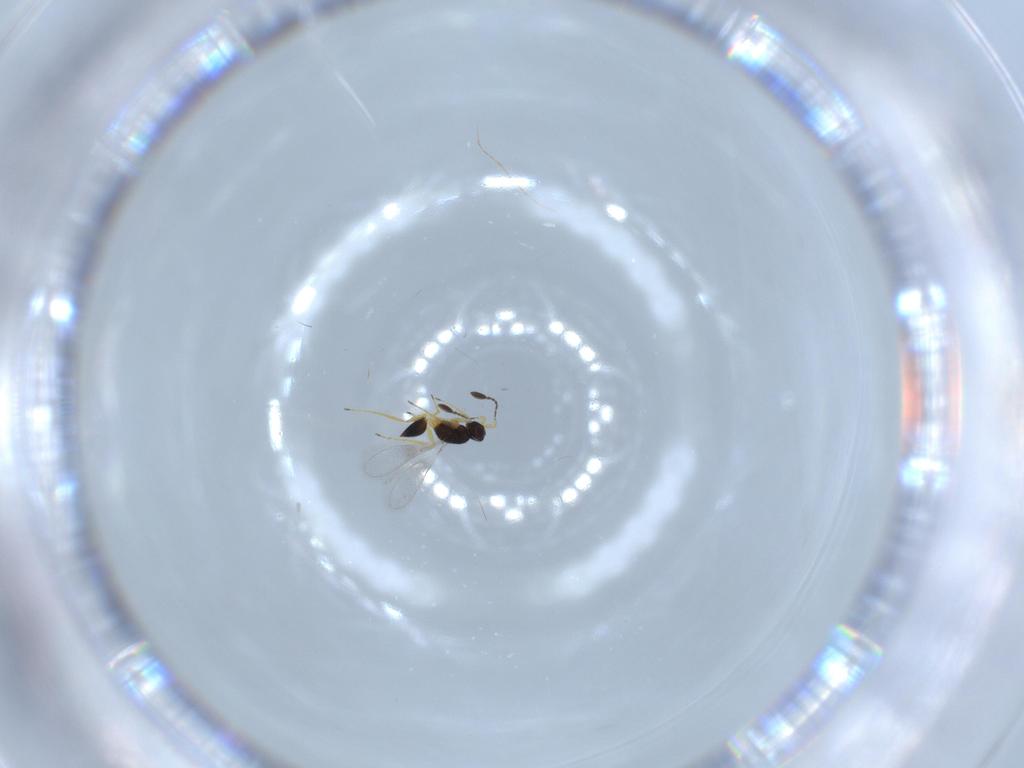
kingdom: Animalia
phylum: Arthropoda
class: Insecta
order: Hymenoptera
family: Mymaridae
